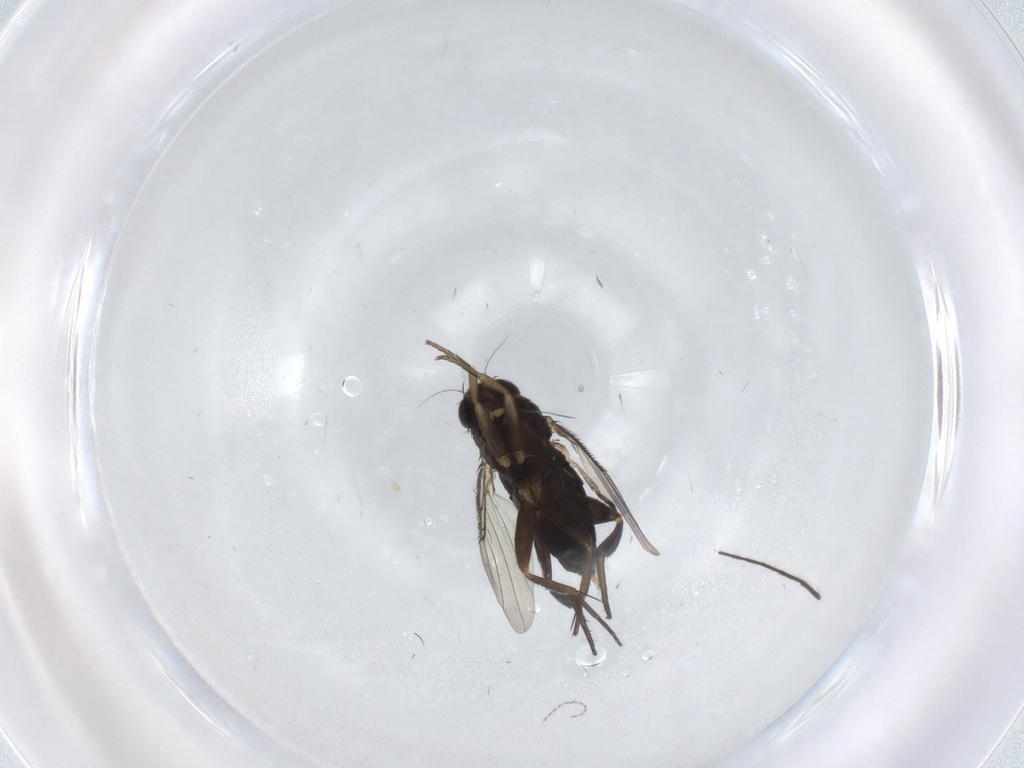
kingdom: Animalia
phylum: Arthropoda
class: Insecta
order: Diptera
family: Phoridae
